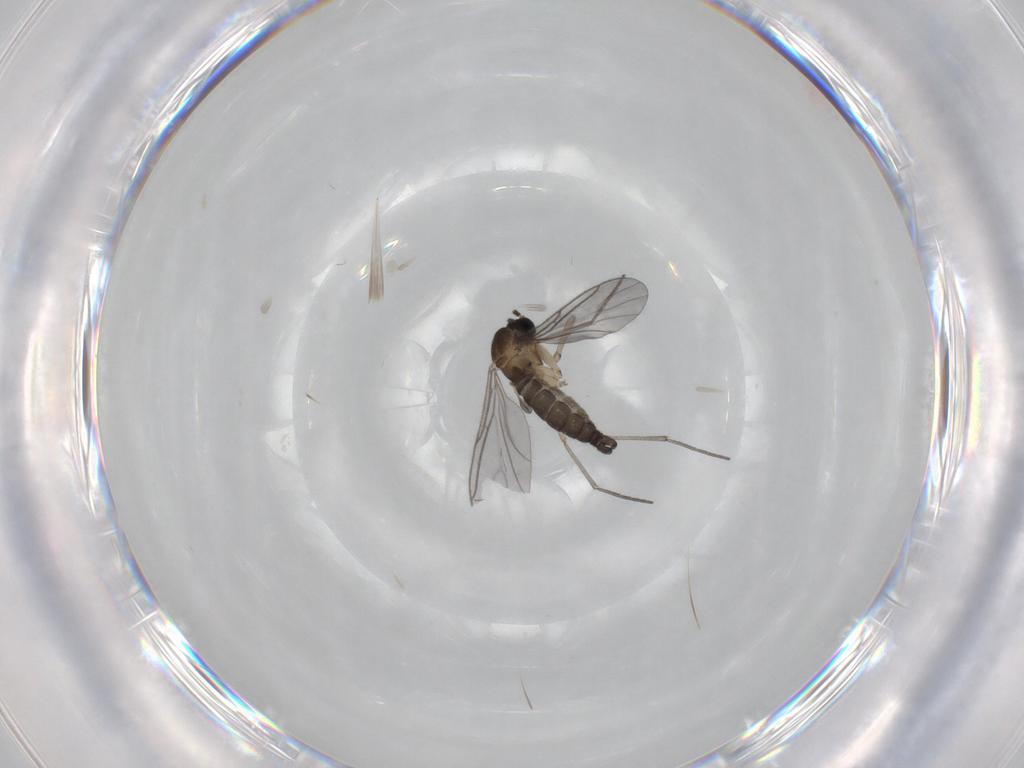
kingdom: Animalia
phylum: Arthropoda
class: Insecta
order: Diptera
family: Sciaridae
